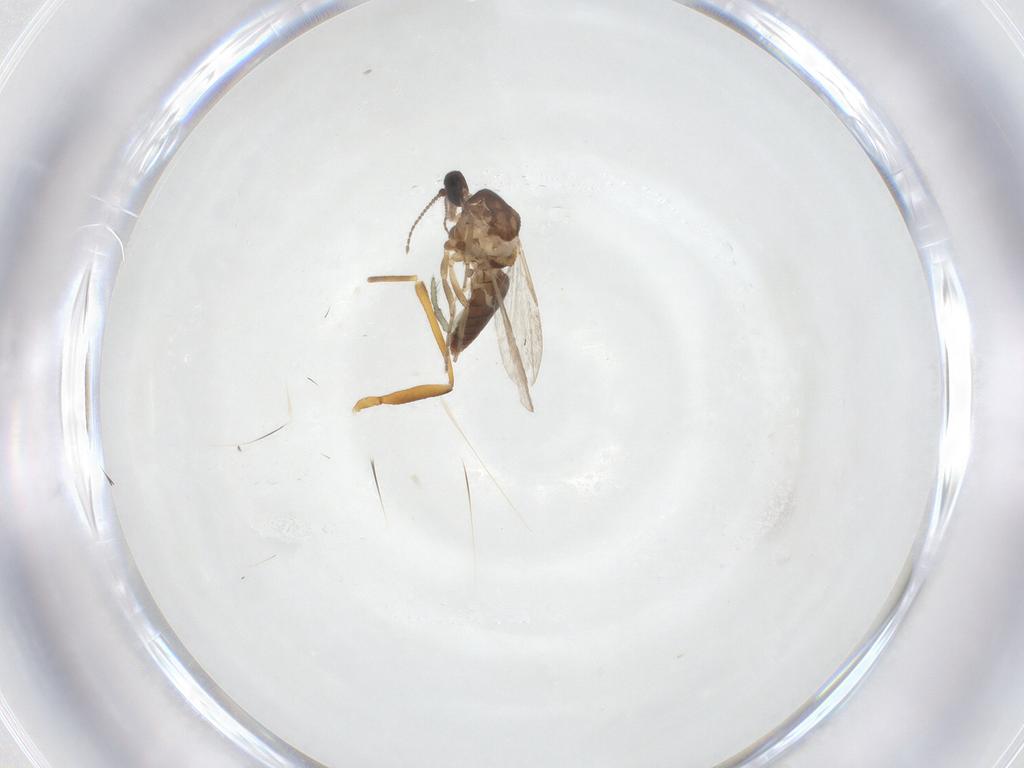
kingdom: Animalia
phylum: Arthropoda
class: Insecta
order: Diptera
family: Ceratopogonidae
